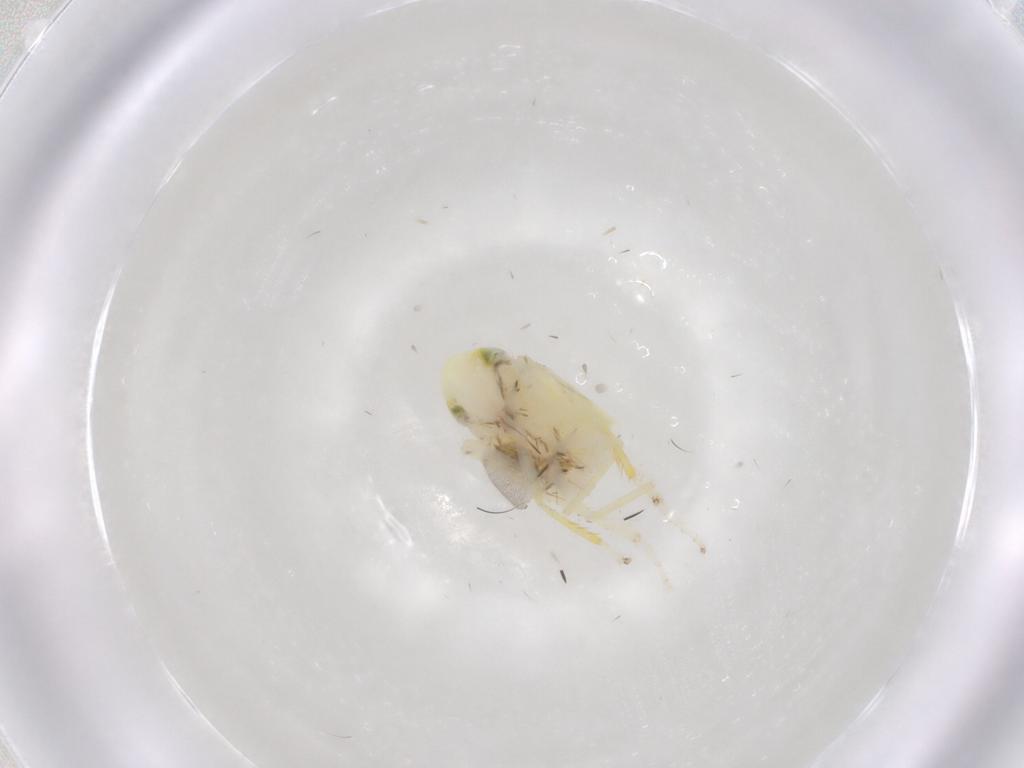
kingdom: Animalia
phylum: Arthropoda
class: Insecta
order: Hemiptera
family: Cicadellidae
